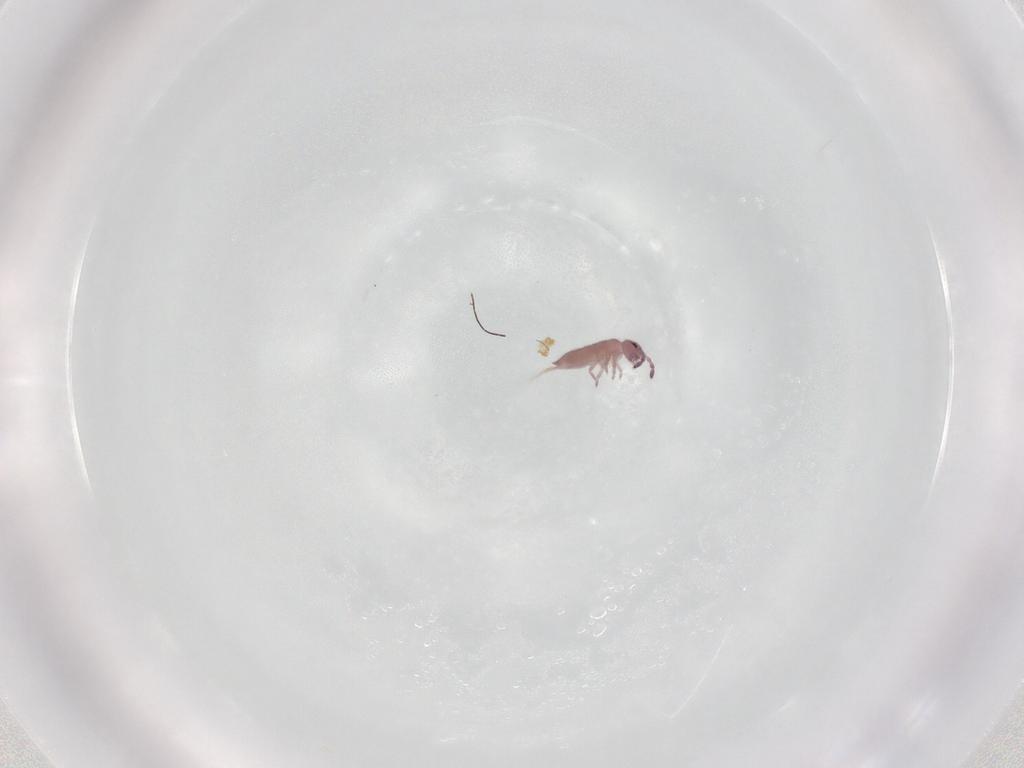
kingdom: Animalia
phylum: Arthropoda
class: Collembola
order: Entomobryomorpha
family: Isotomidae
